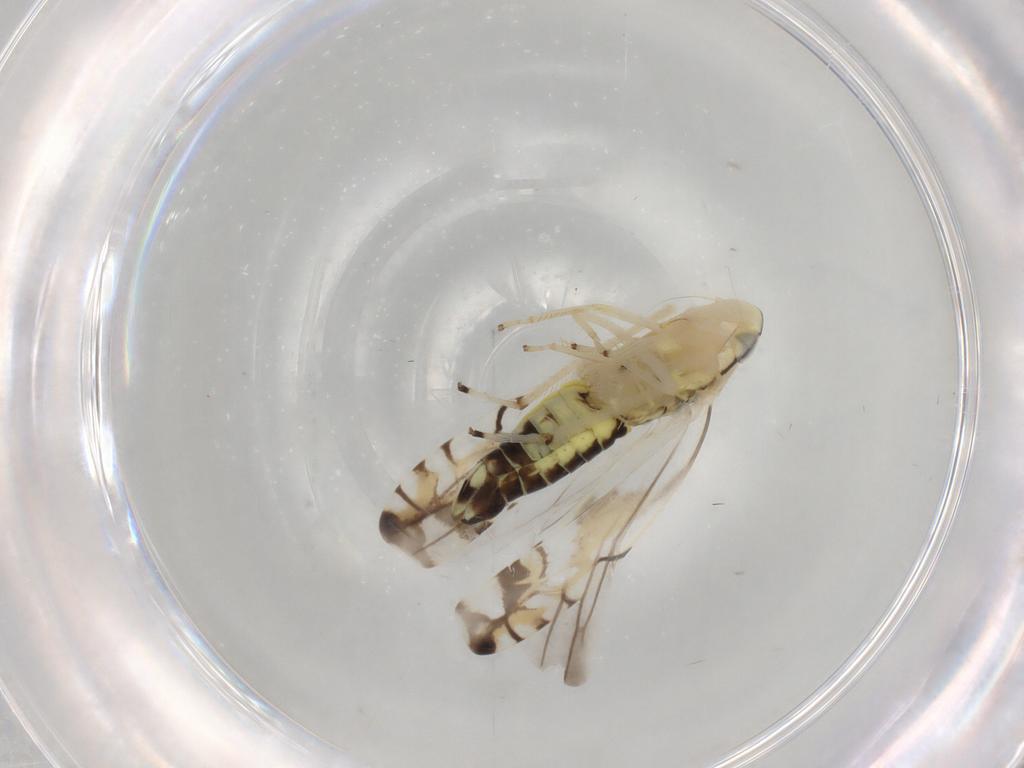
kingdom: Animalia
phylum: Arthropoda
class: Insecta
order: Hemiptera
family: Cicadellidae
